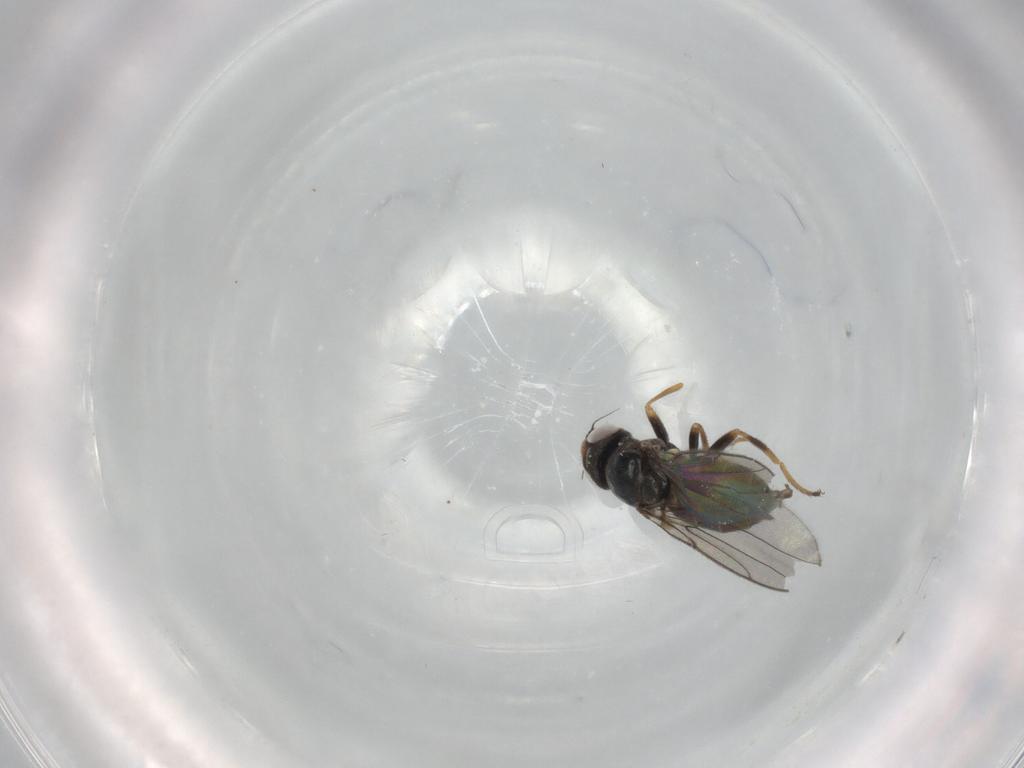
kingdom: Animalia
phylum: Arthropoda
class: Insecta
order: Diptera
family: Chloropidae
